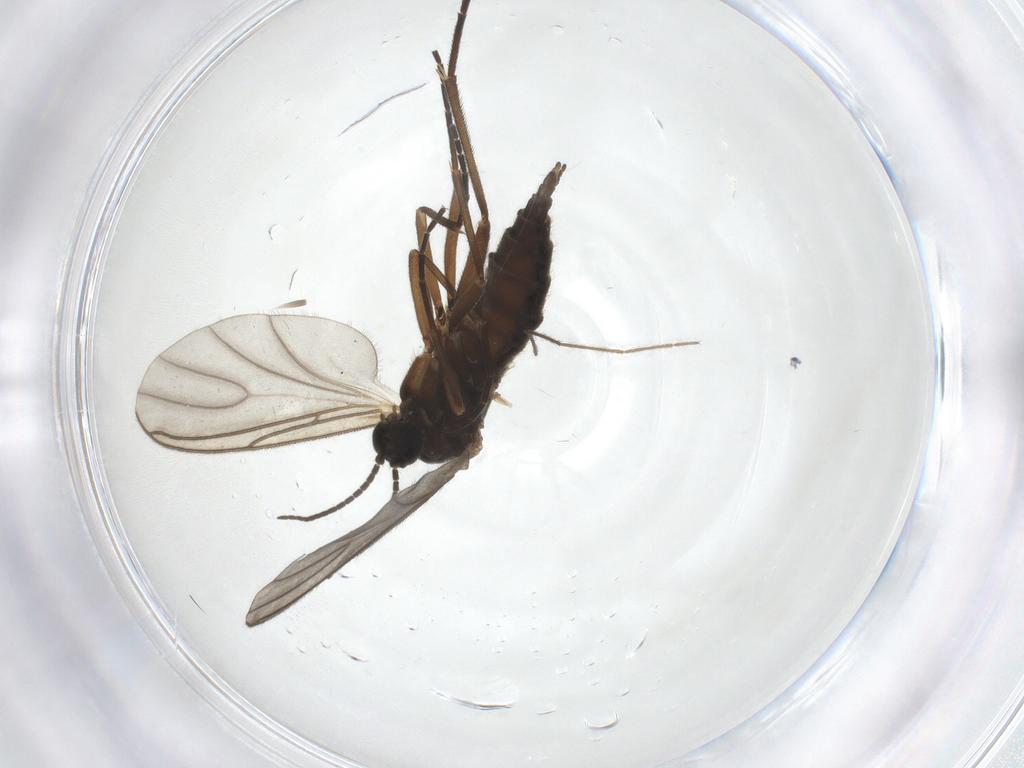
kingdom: Animalia
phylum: Arthropoda
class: Insecta
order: Diptera
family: Sciaridae
